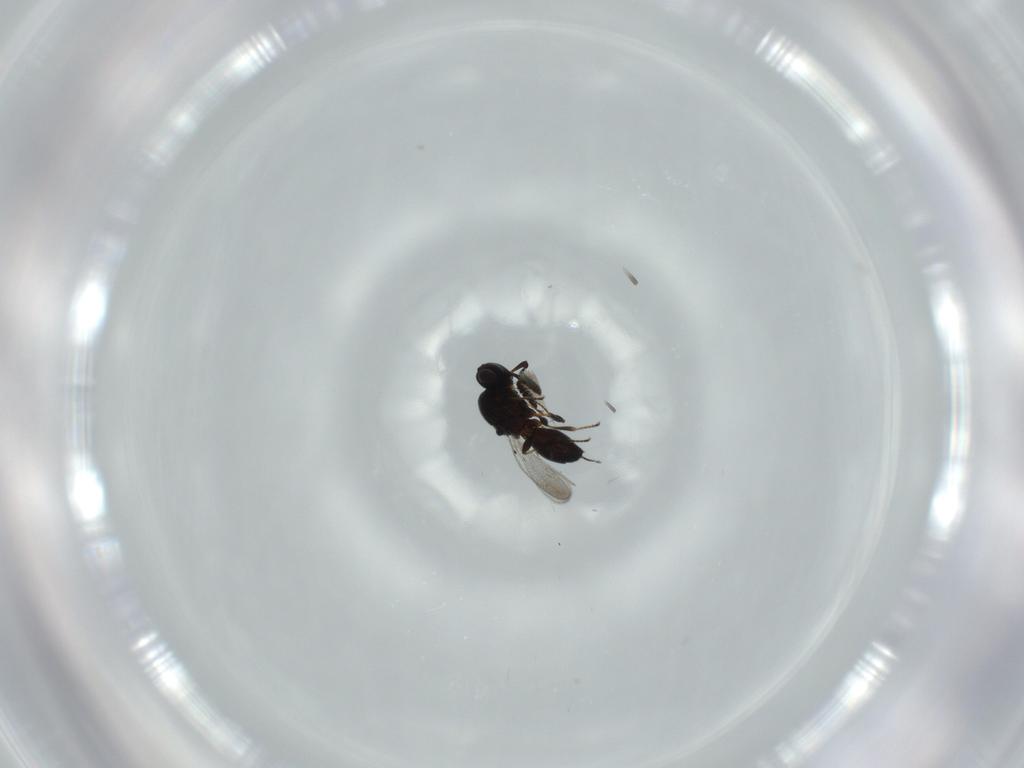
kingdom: Animalia
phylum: Arthropoda
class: Insecta
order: Hymenoptera
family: Platygastridae
